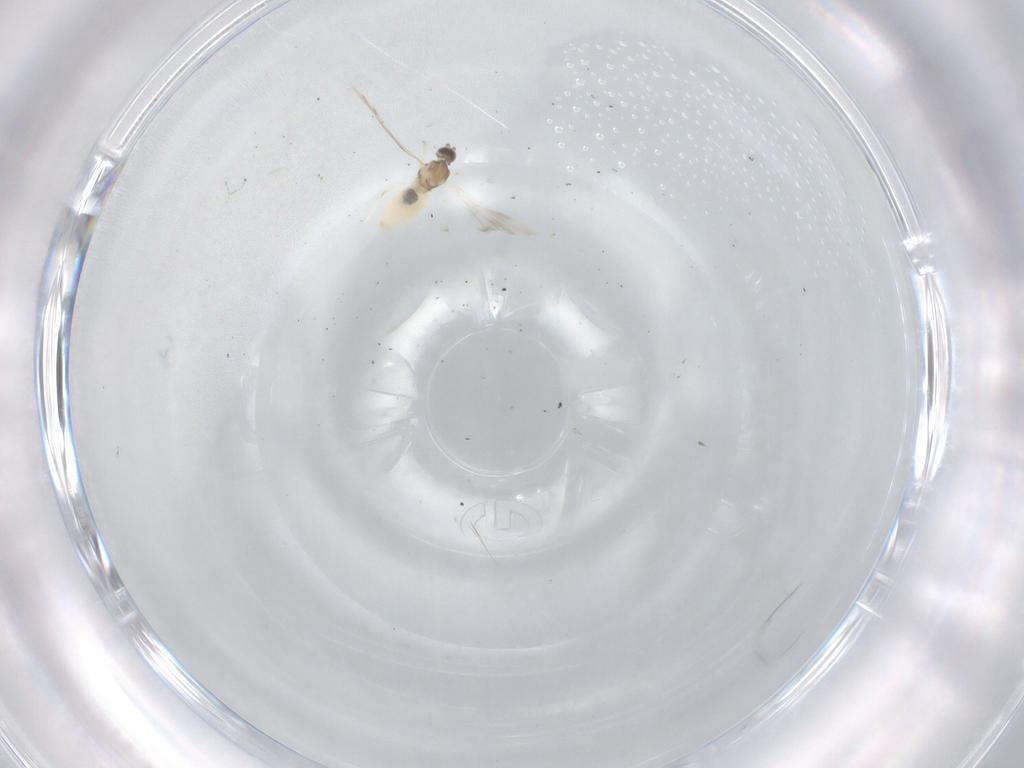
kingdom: Animalia
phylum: Arthropoda
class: Insecta
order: Diptera
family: Cecidomyiidae
